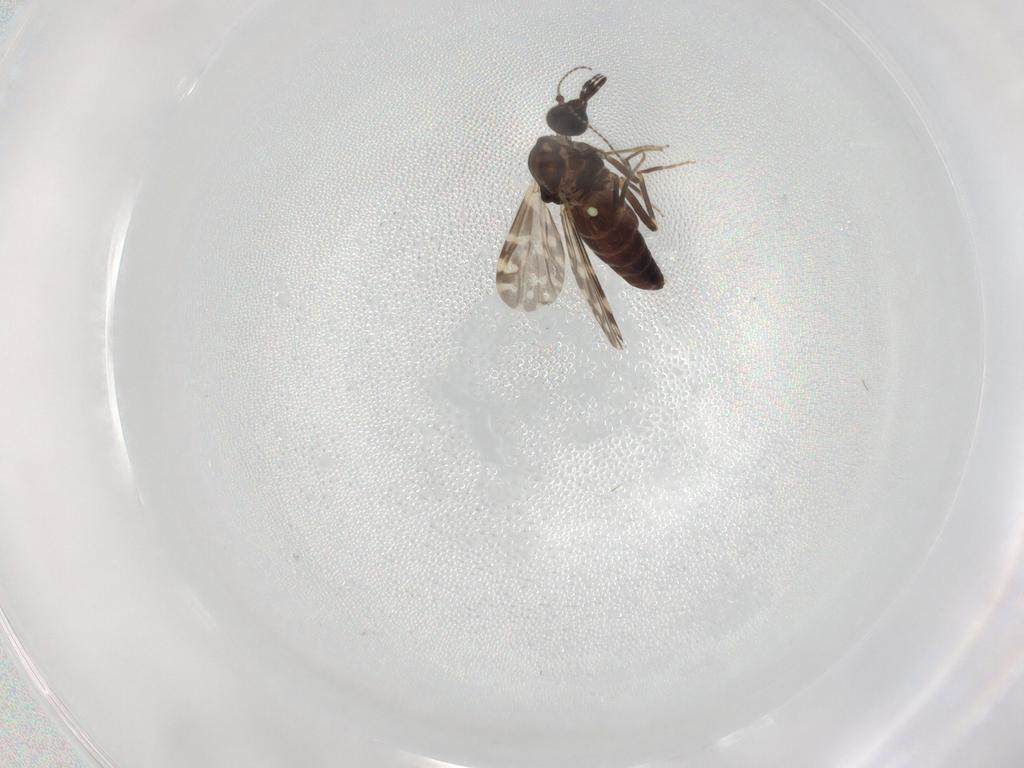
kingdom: Animalia
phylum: Arthropoda
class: Insecta
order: Diptera
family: Ceratopogonidae
